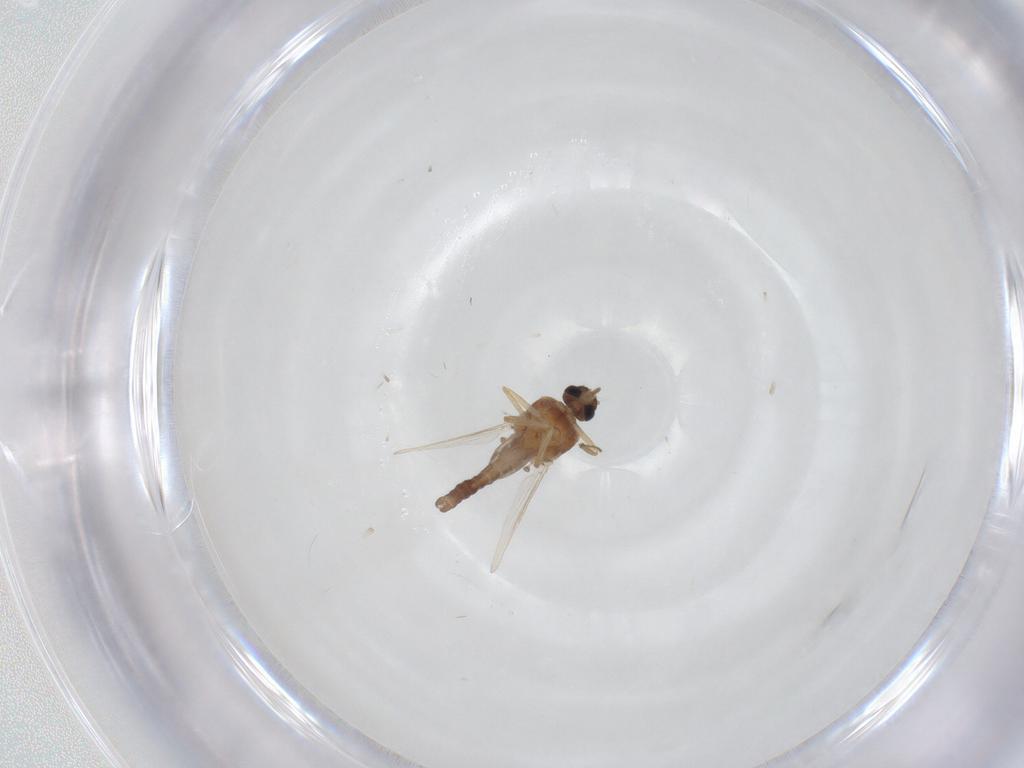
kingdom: Animalia
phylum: Arthropoda
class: Insecta
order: Diptera
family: Ceratopogonidae
